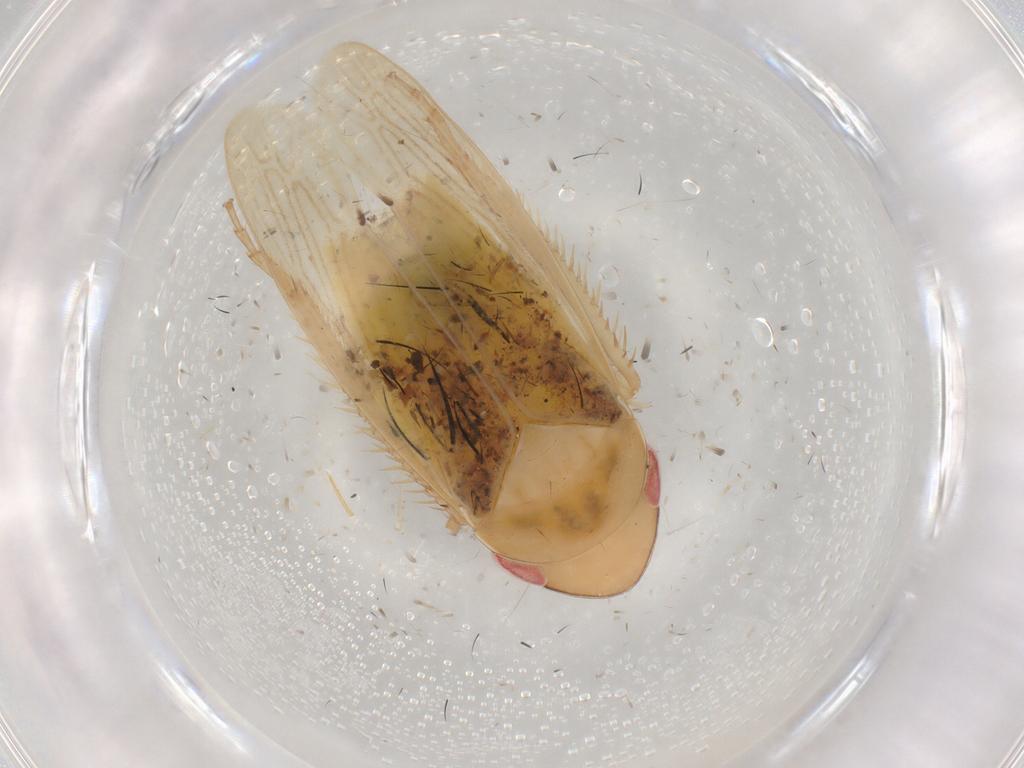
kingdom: Animalia
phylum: Arthropoda
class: Insecta
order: Hemiptera
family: Cicadellidae
